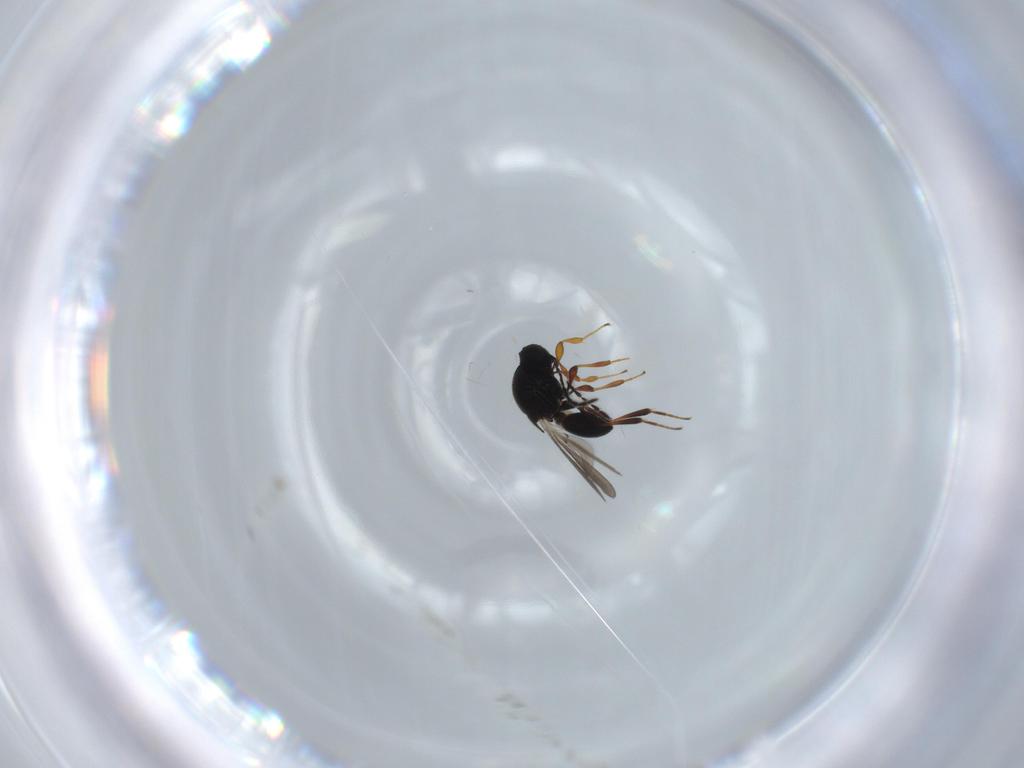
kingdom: Animalia
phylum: Arthropoda
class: Insecta
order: Hymenoptera
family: Platygastridae
